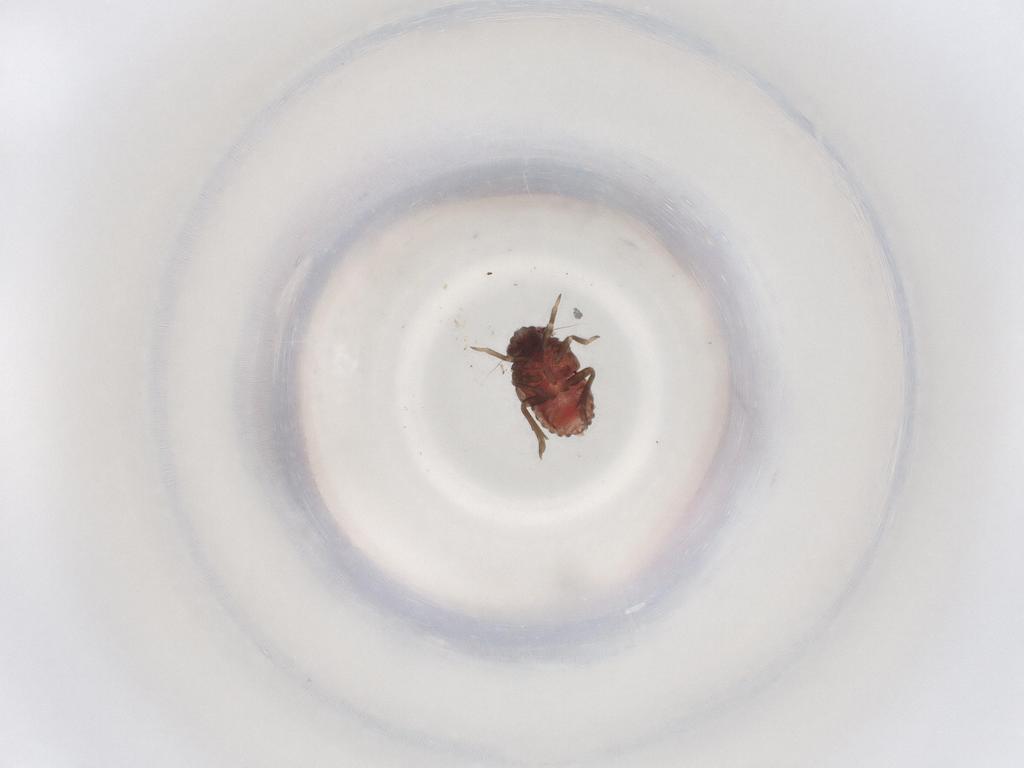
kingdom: Animalia
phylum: Arthropoda
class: Insecta
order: Hemiptera
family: Caliscelidae
